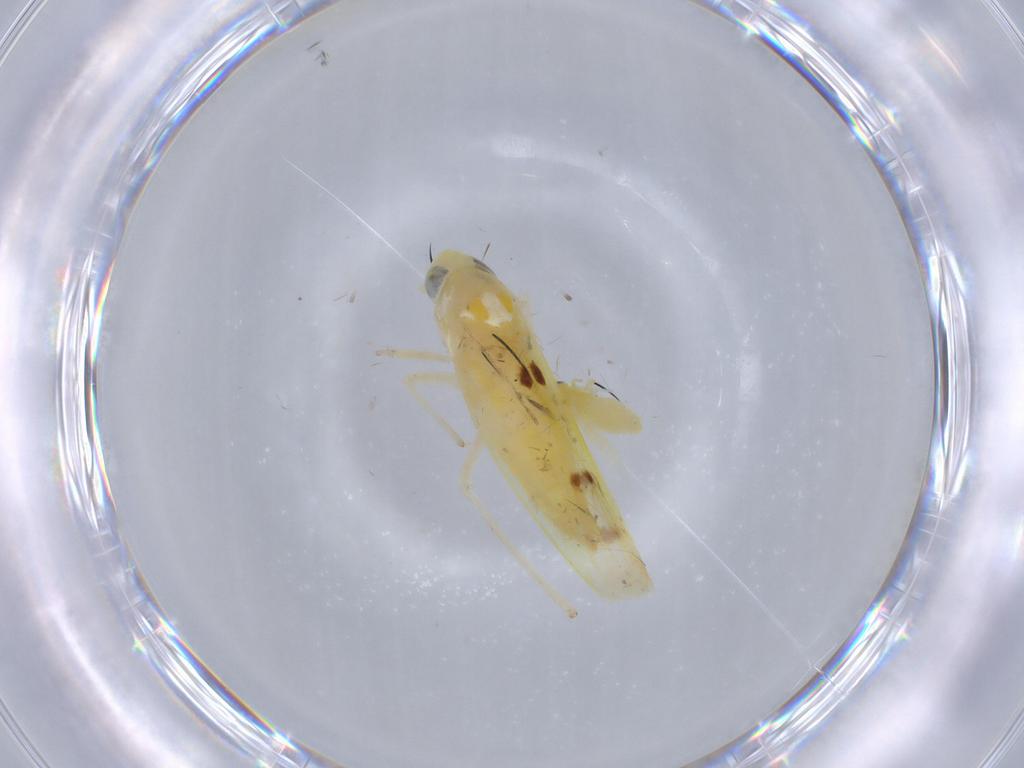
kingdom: Animalia
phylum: Arthropoda
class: Insecta
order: Hemiptera
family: Aleyrodidae
